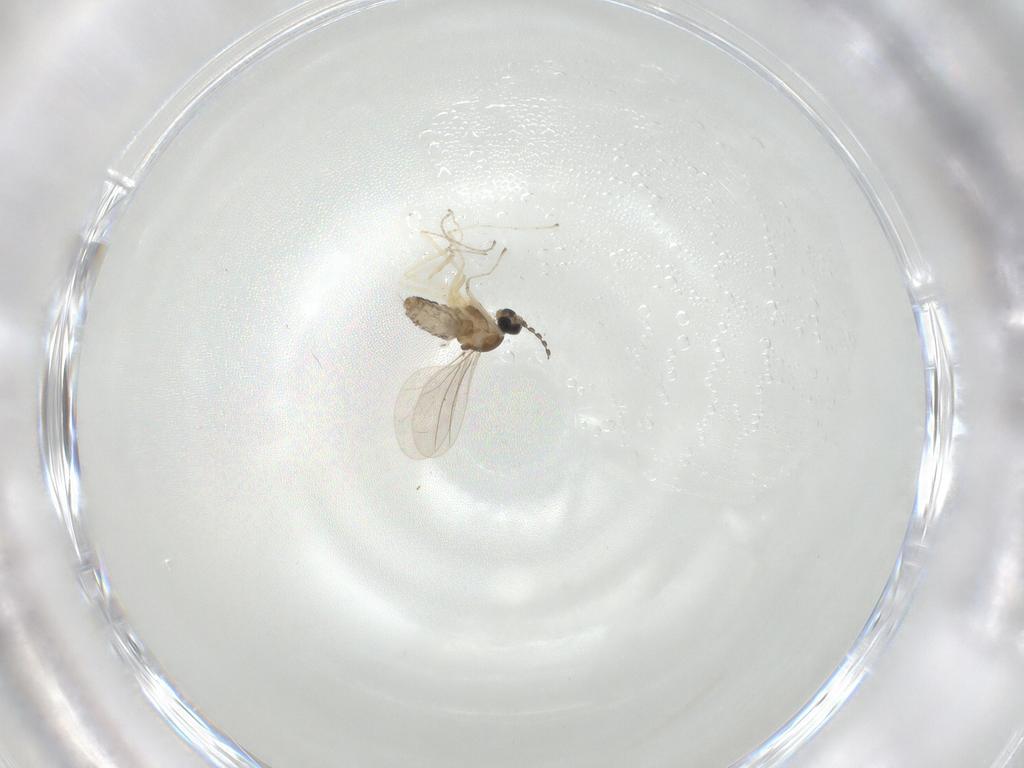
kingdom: Animalia
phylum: Arthropoda
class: Insecta
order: Diptera
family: Cecidomyiidae
